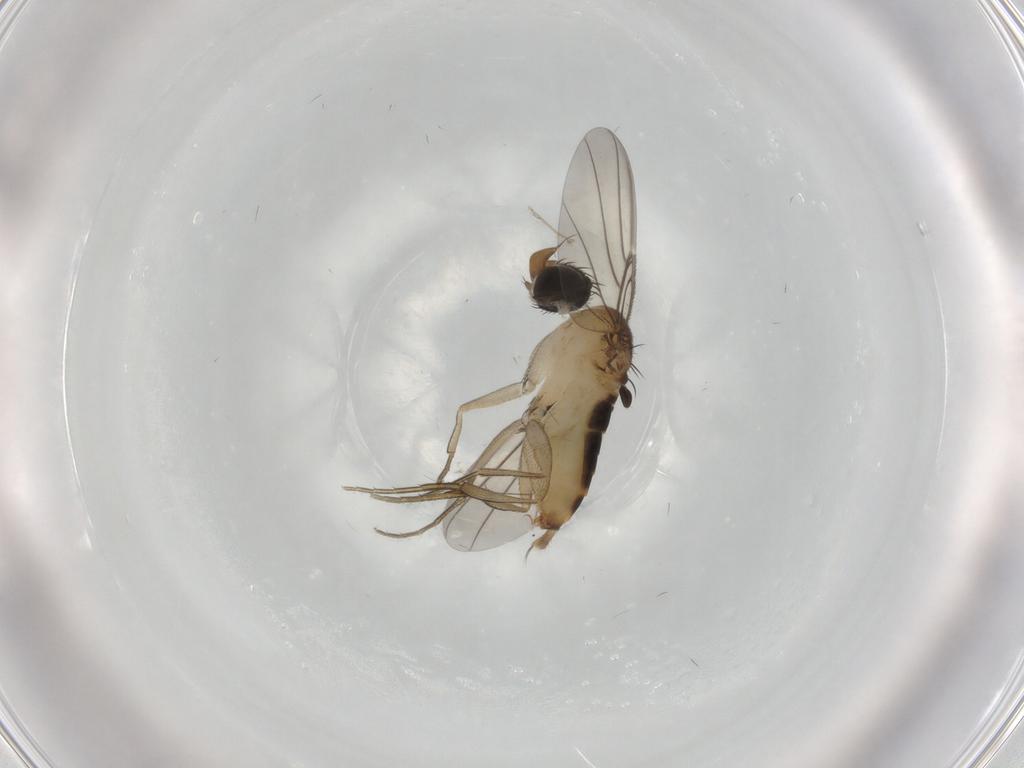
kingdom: Animalia
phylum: Arthropoda
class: Insecta
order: Diptera
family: Phoridae
